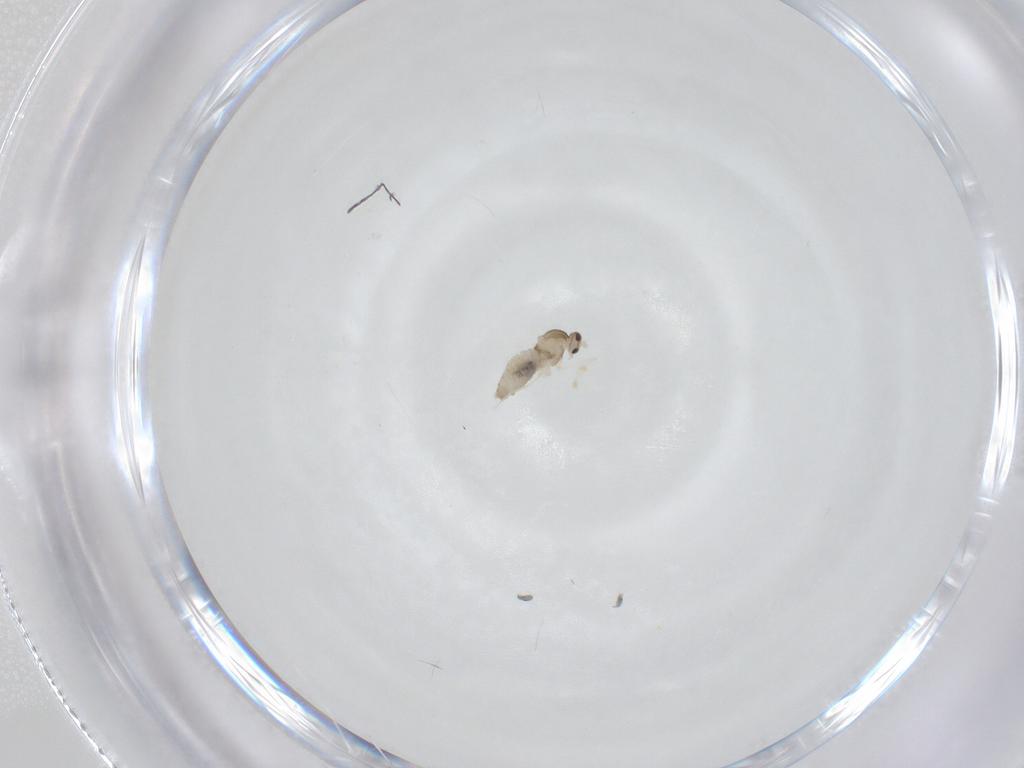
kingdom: Animalia
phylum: Arthropoda
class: Insecta
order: Diptera
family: Cecidomyiidae
